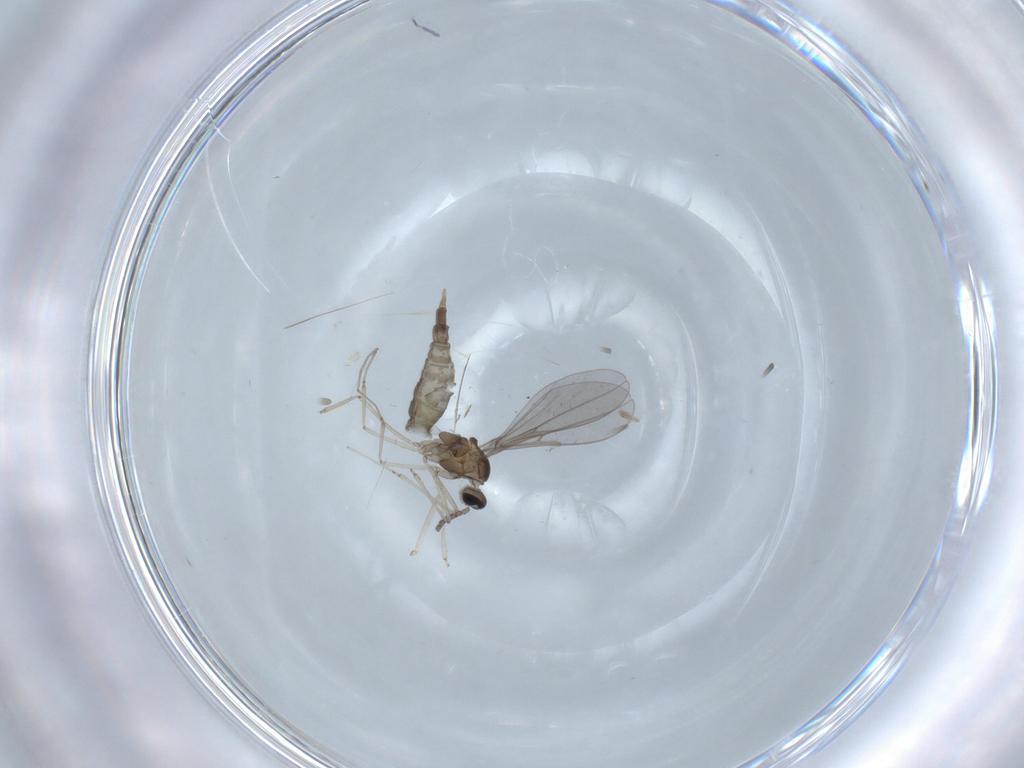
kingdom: Animalia
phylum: Arthropoda
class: Insecta
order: Diptera
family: Cecidomyiidae
